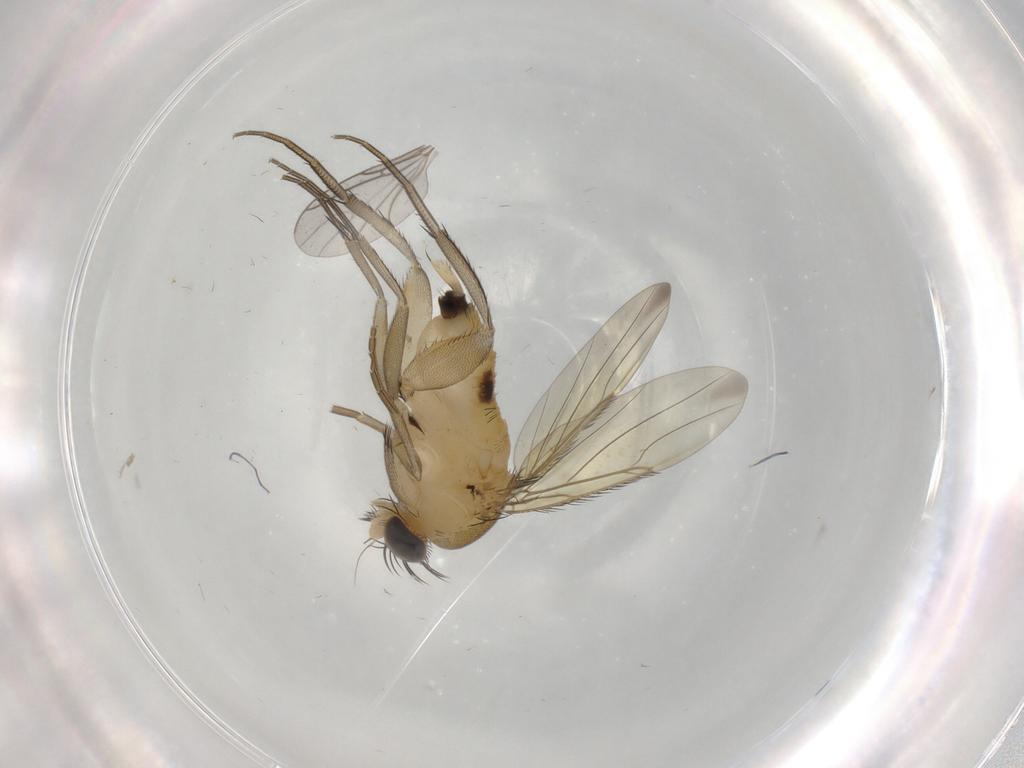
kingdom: Animalia
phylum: Arthropoda
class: Insecta
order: Diptera
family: Phoridae
